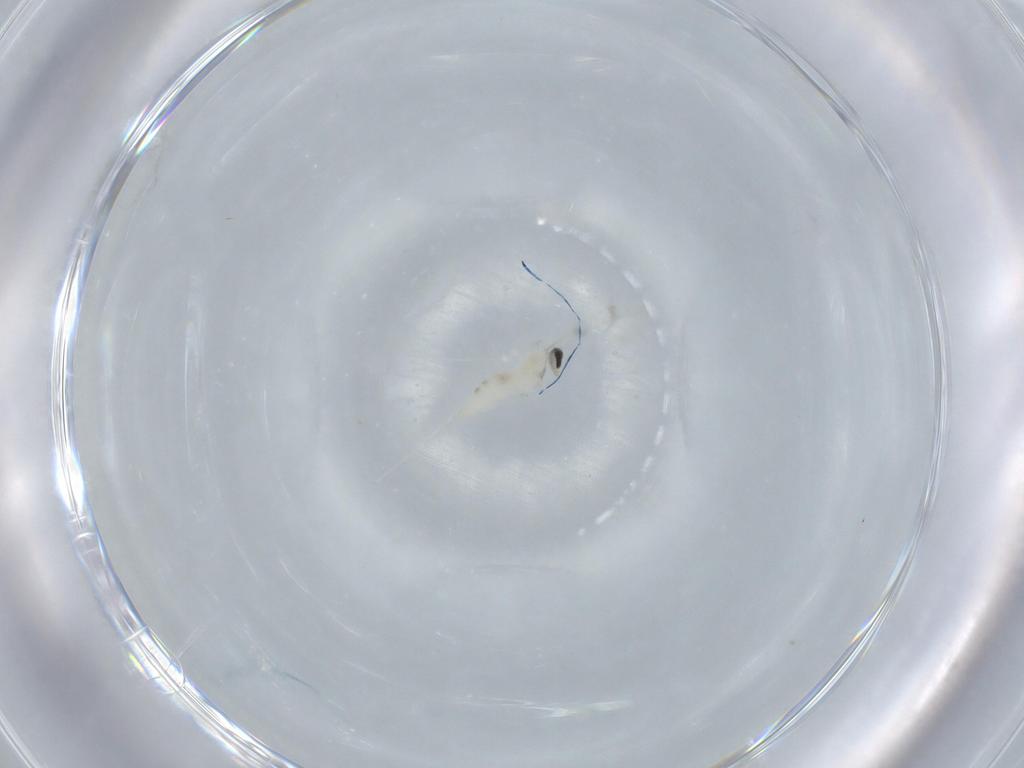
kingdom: Animalia
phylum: Arthropoda
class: Insecta
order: Diptera
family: Cecidomyiidae
